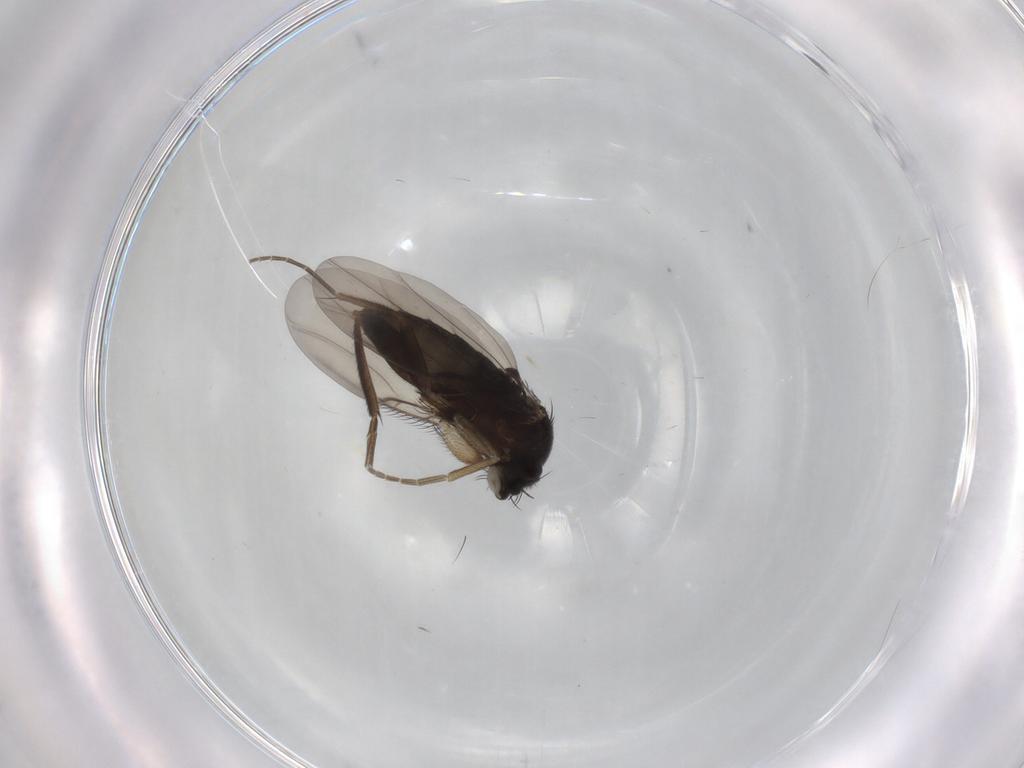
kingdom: Animalia
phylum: Arthropoda
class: Insecta
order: Diptera
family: Phoridae
